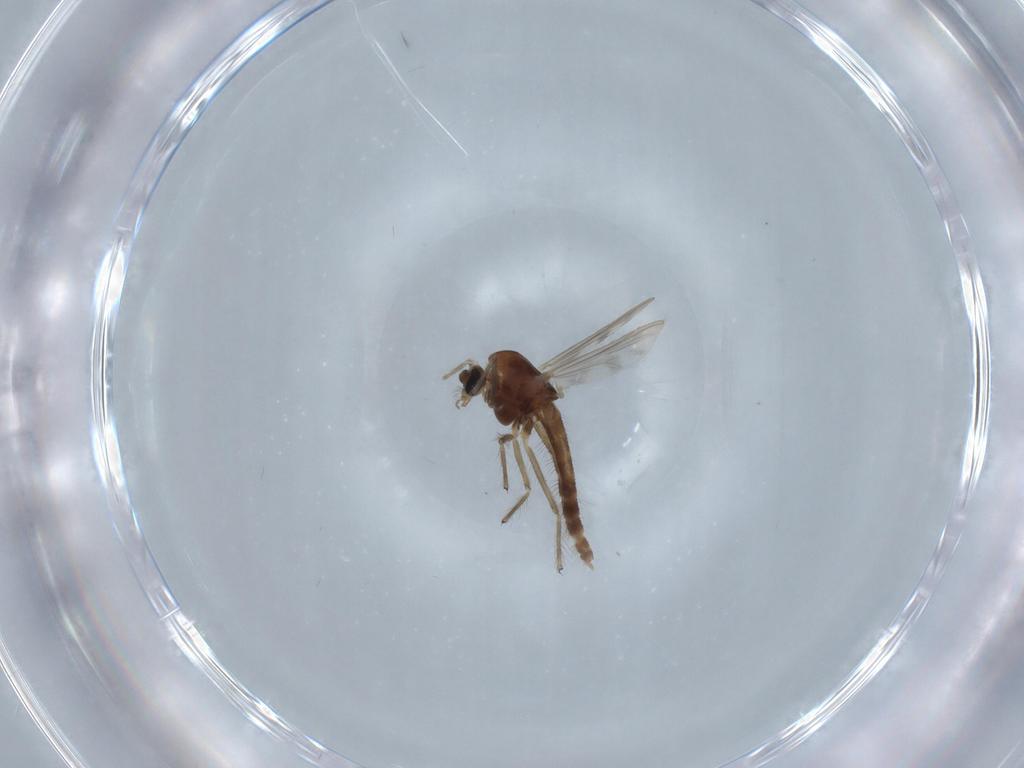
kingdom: Animalia
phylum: Arthropoda
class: Insecta
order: Diptera
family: Chironomidae
